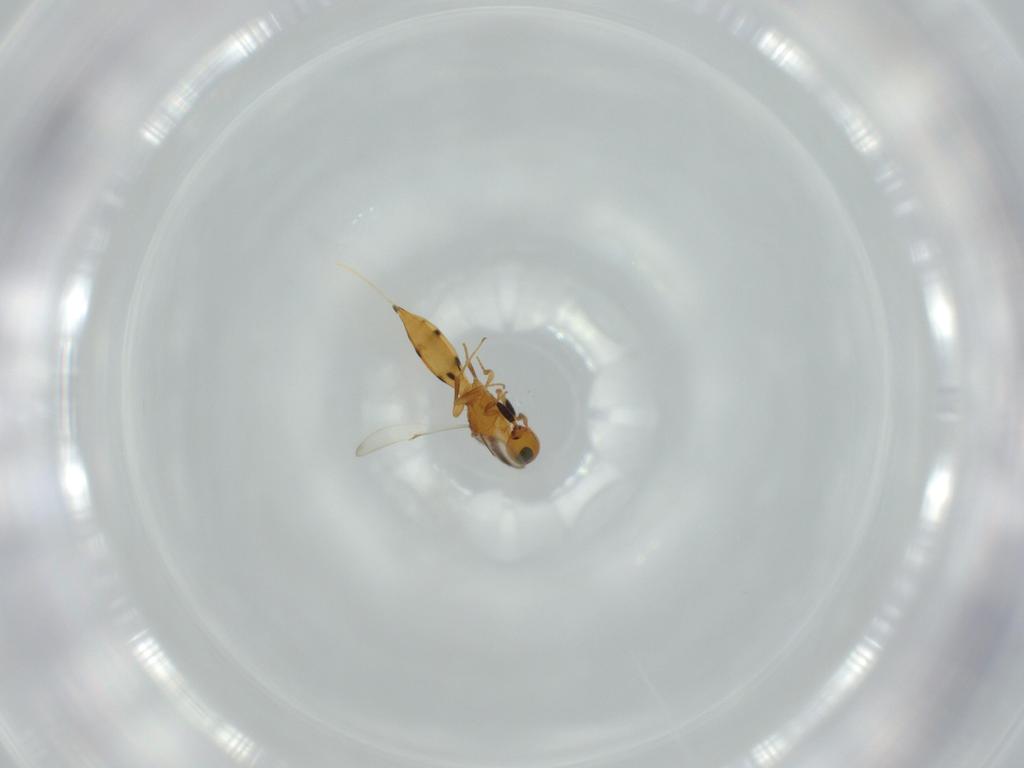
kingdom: Animalia
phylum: Arthropoda
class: Insecta
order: Hymenoptera
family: Scelionidae
